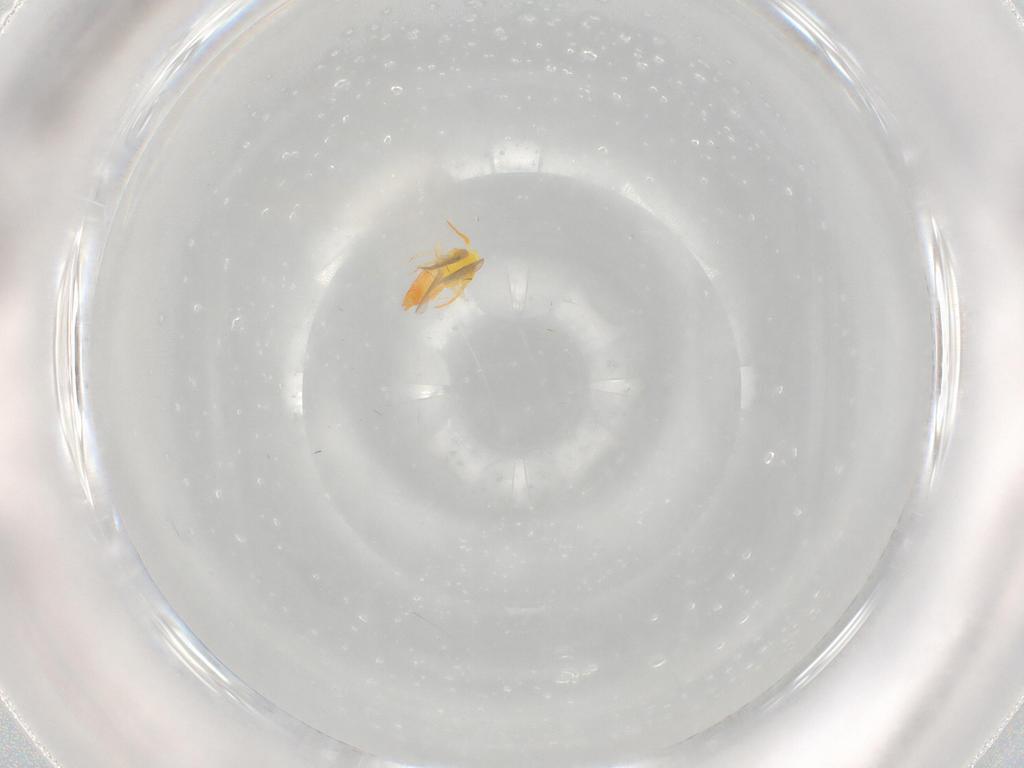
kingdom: Animalia
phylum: Arthropoda
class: Insecta
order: Hemiptera
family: Aleyrodidae
